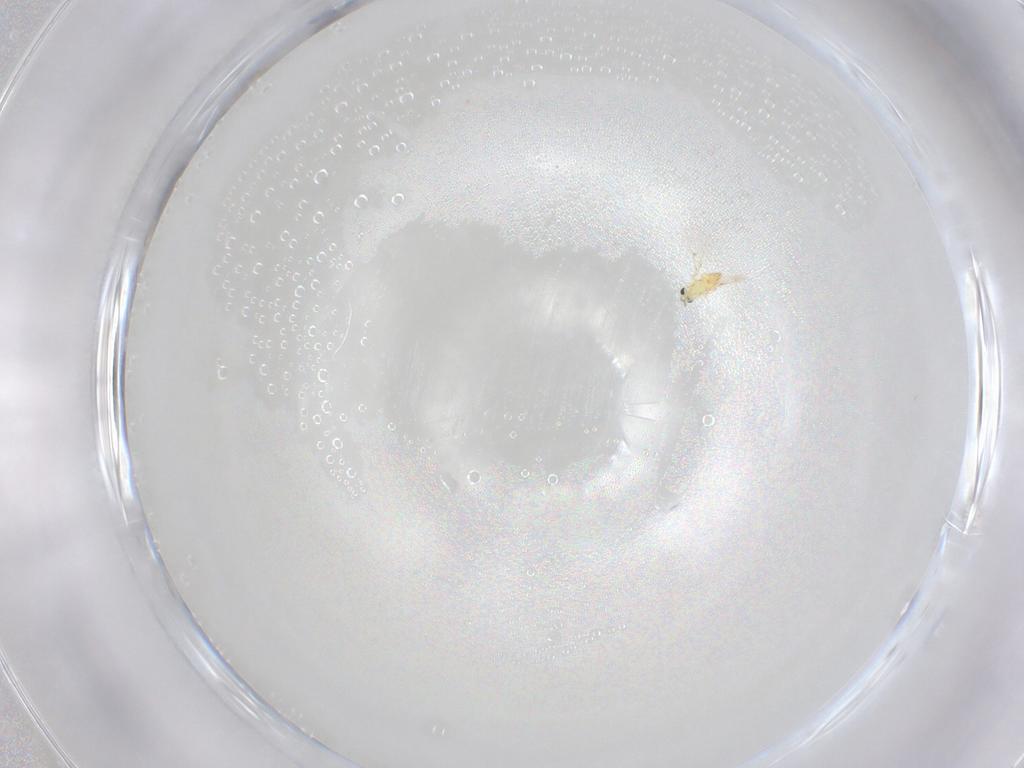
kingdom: Animalia
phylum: Arthropoda
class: Insecta
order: Hymenoptera
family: Trichogrammatidae
